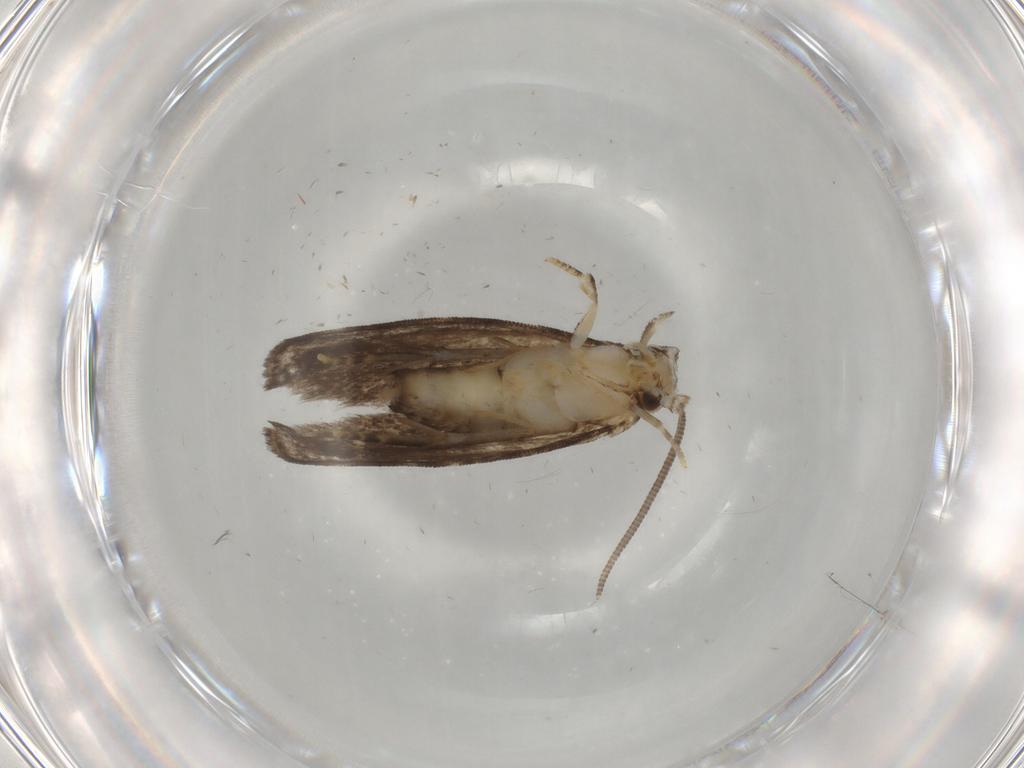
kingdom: Animalia
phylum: Arthropoda
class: Insecta
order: Lepidoptera
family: Dryadaulidae
